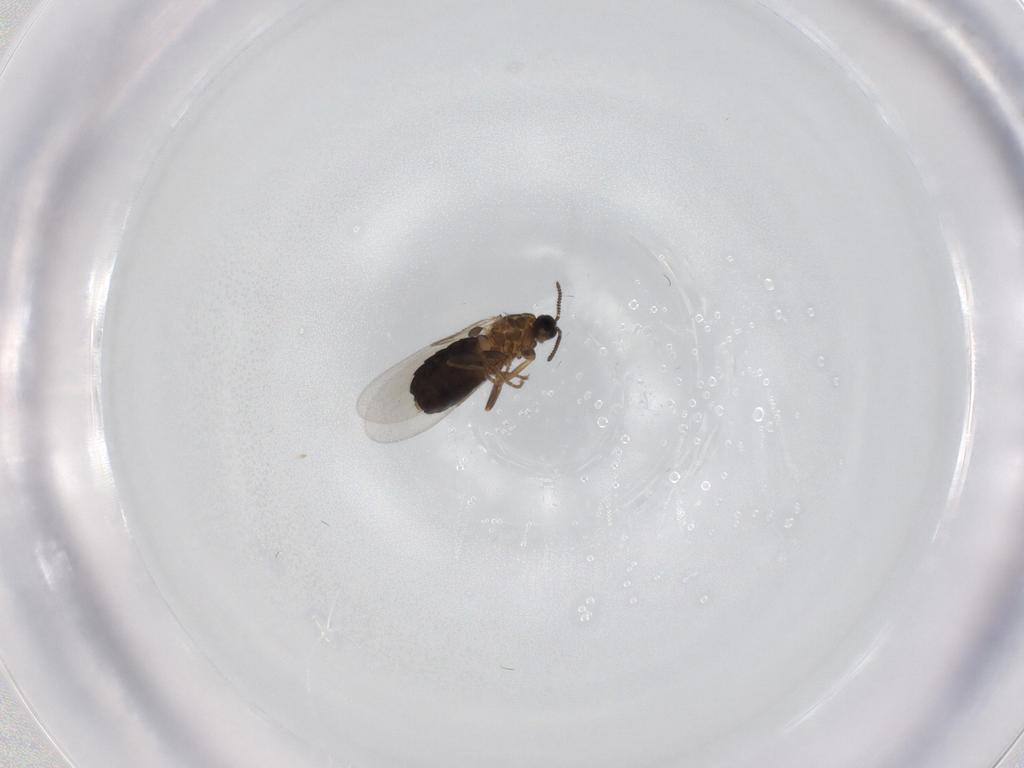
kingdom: Animalia
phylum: Arthropoda
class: Insecta
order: Diptera
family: Scatopsidae
